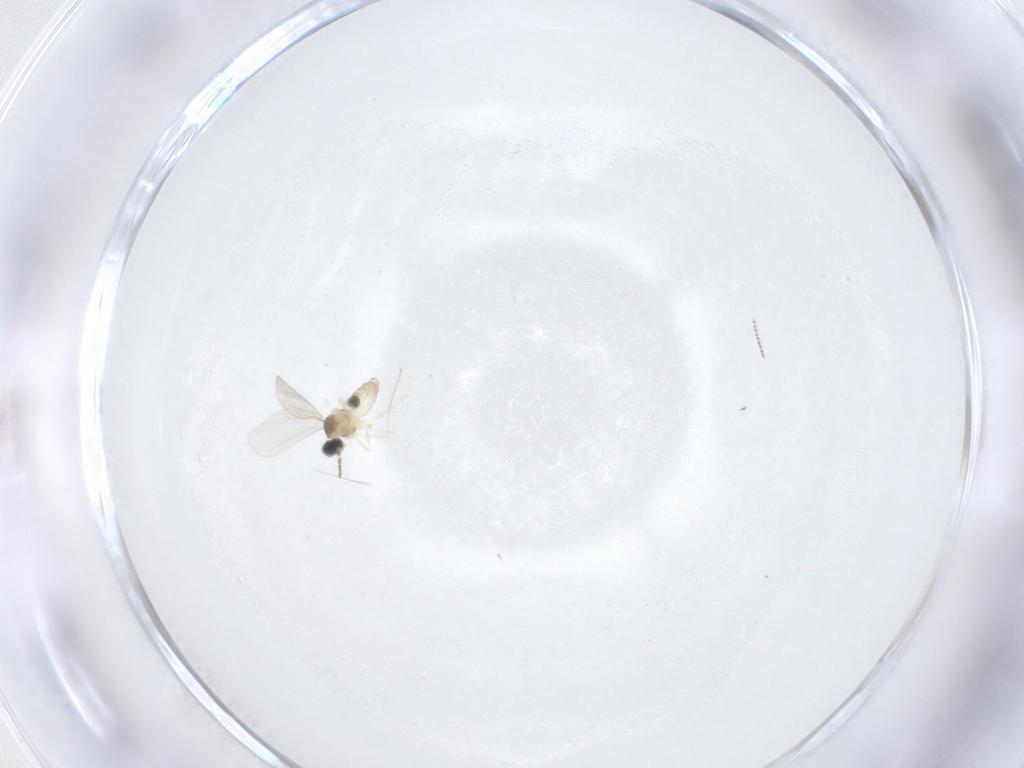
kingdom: Animalia
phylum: Arthropoda
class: Insecta
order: Diptera
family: Cecidomyiidae
